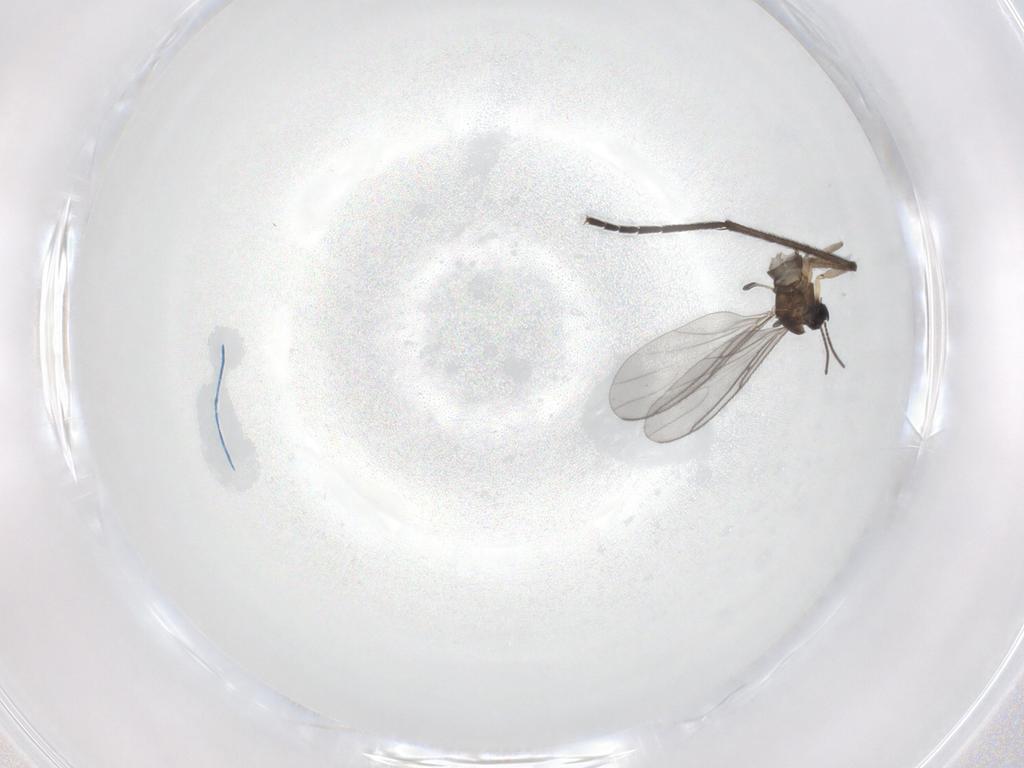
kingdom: Animalia
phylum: Arthropoda
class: Insecta
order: Diptera
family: Sciaridae
